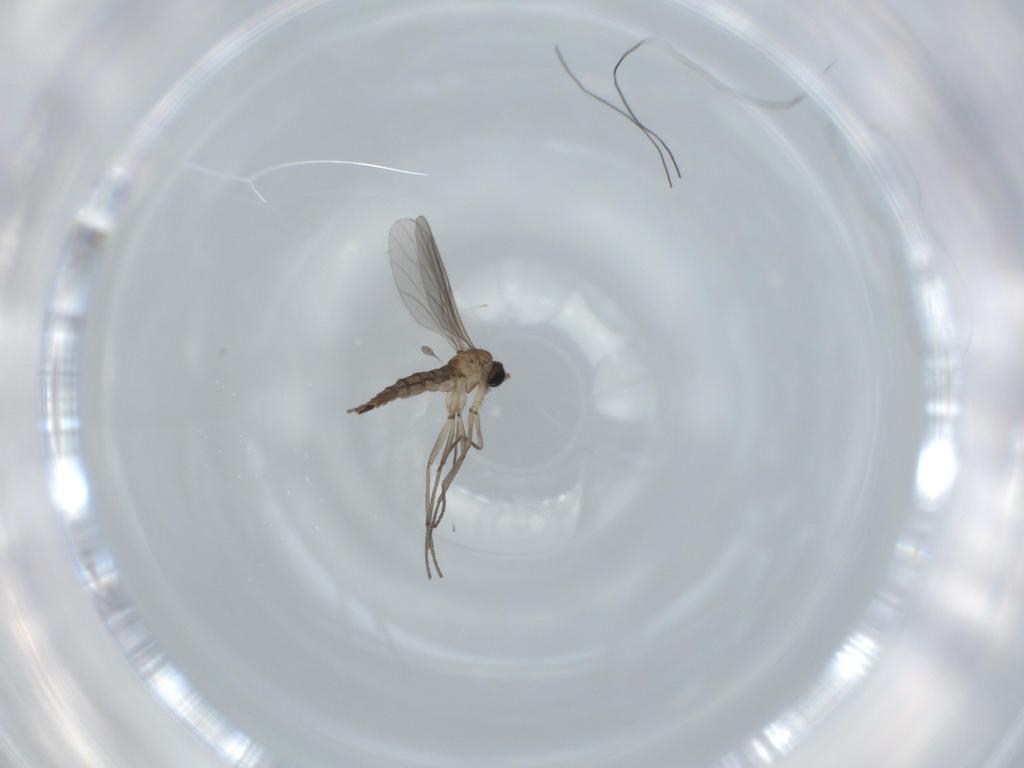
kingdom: Animalia
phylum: Arthropoda
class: Insecta
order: Diptera
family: Sciaridae
